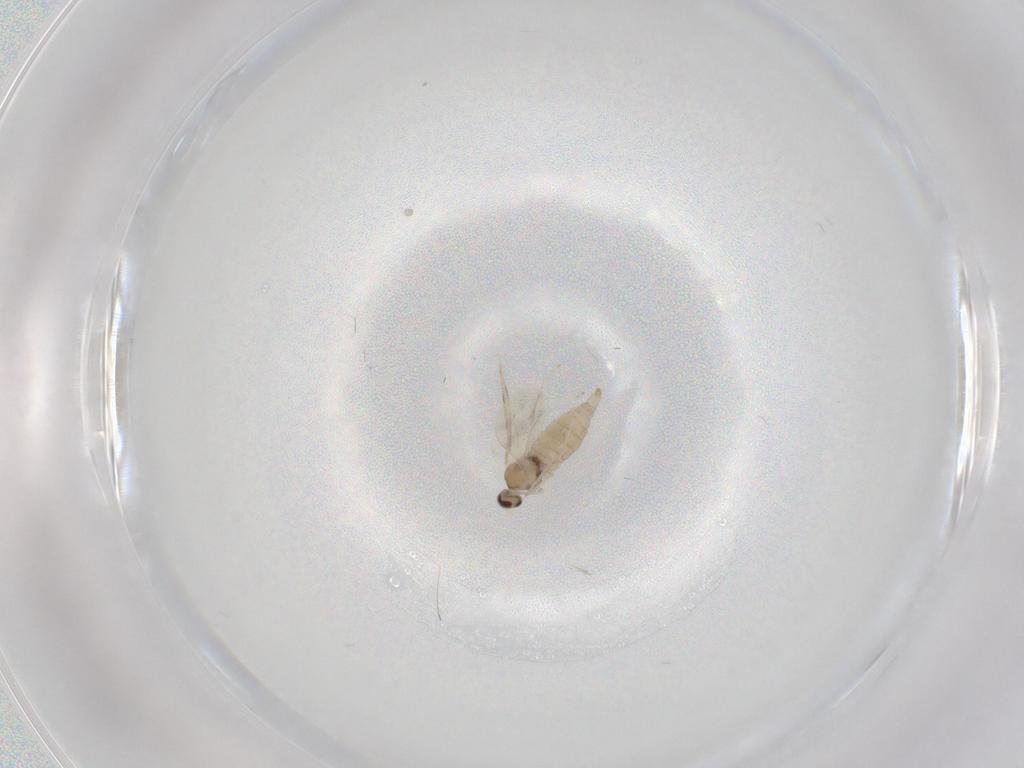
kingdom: Animalia
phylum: Arthropoda
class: Insecta
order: Diptera
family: Cecidomyiidae
